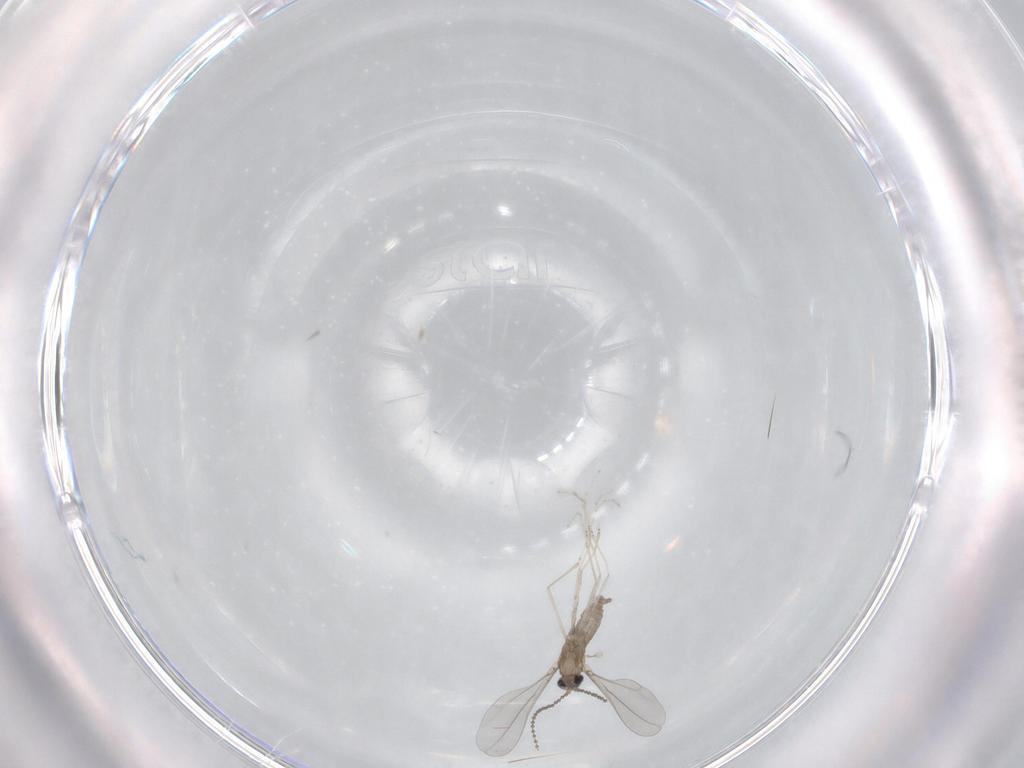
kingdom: Animalia
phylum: Arthropoda
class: Insecta
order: Diptera
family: Cecidomyiidae
